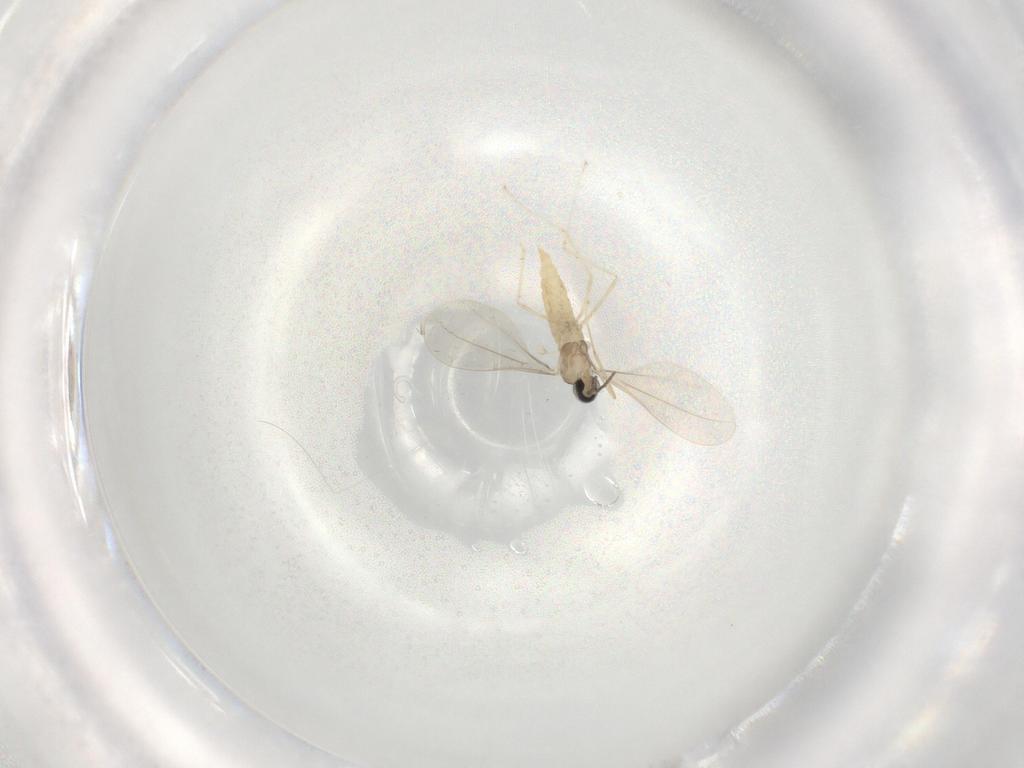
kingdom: Animalia
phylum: Arthropoda
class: Insecta
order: Diptera
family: Cecidomyiidae
